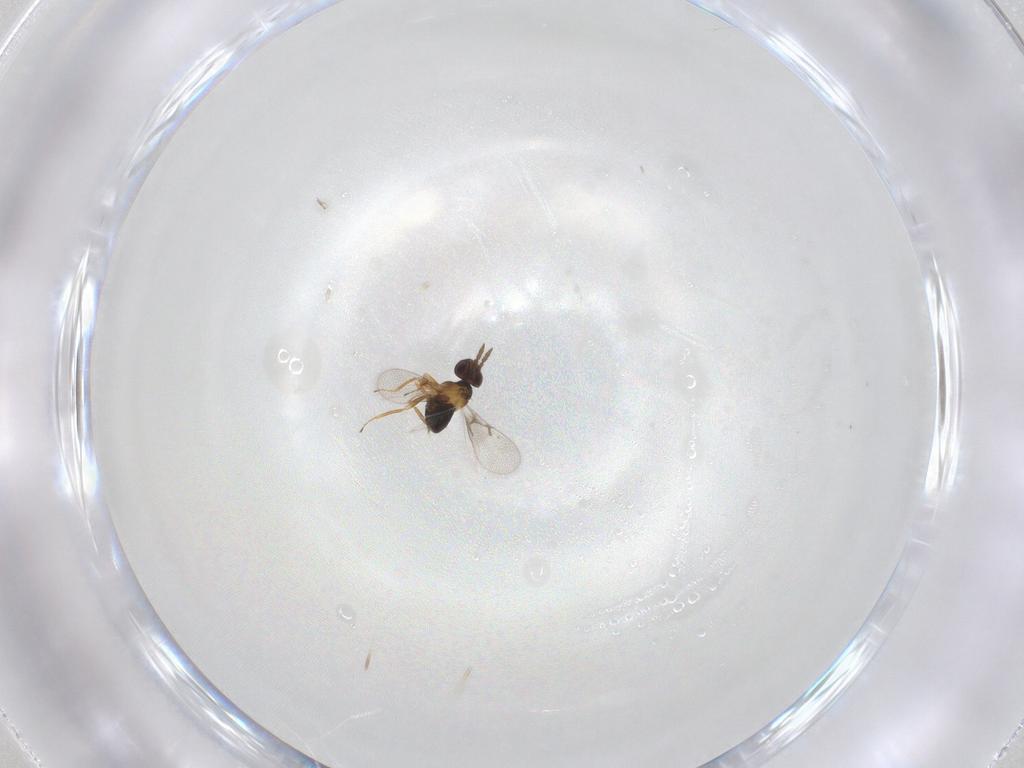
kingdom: Animalia
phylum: Arthropoda
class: Insecta
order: Hymenoptera
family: Trichogrammatidae
